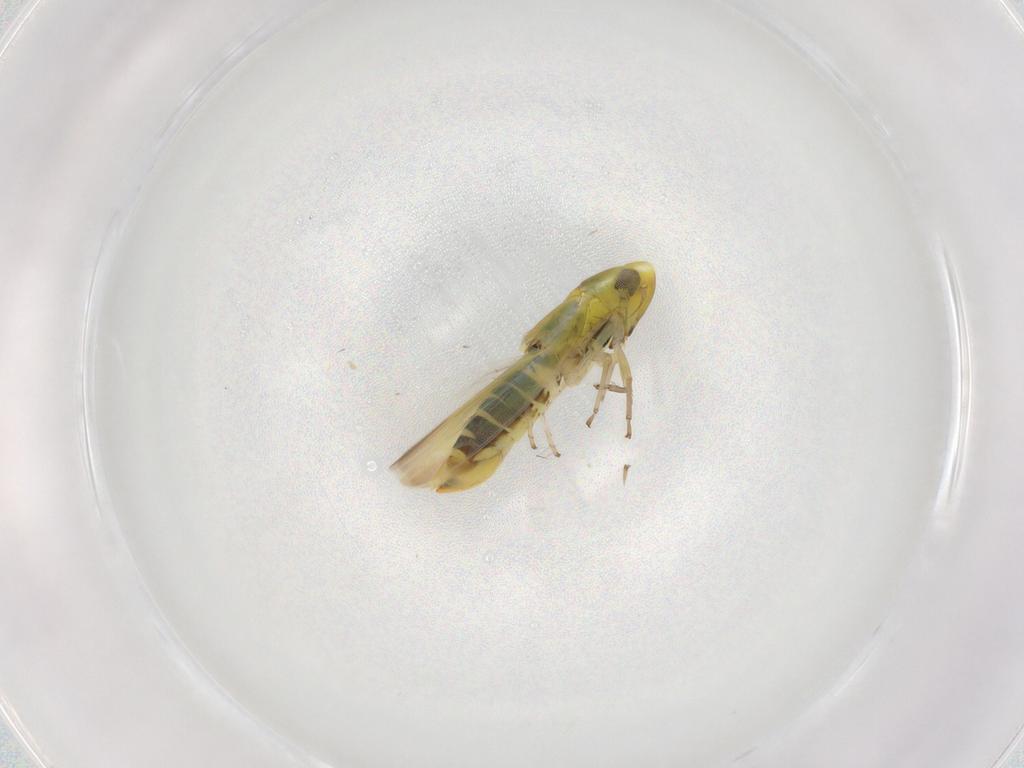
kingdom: Animalia
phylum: Arthropoda
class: Insecta
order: Hemiptera
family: Cicadellidae
